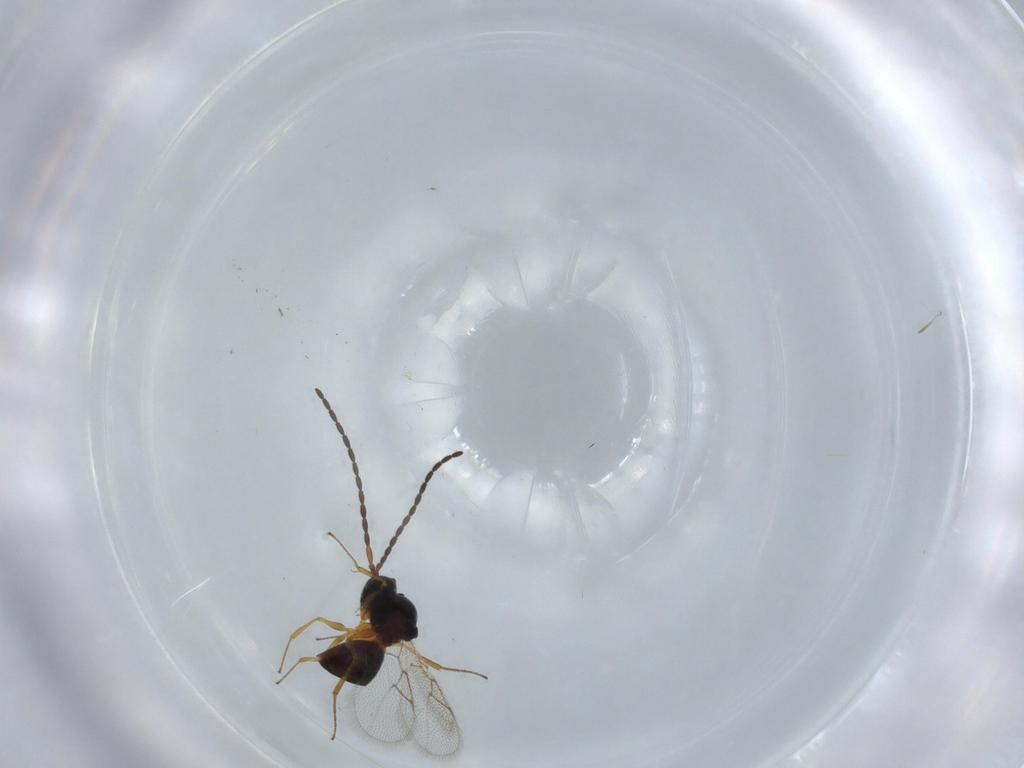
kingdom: Animalia
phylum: Arthropoda
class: Insecta
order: Hymenoptera
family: Figitidae
